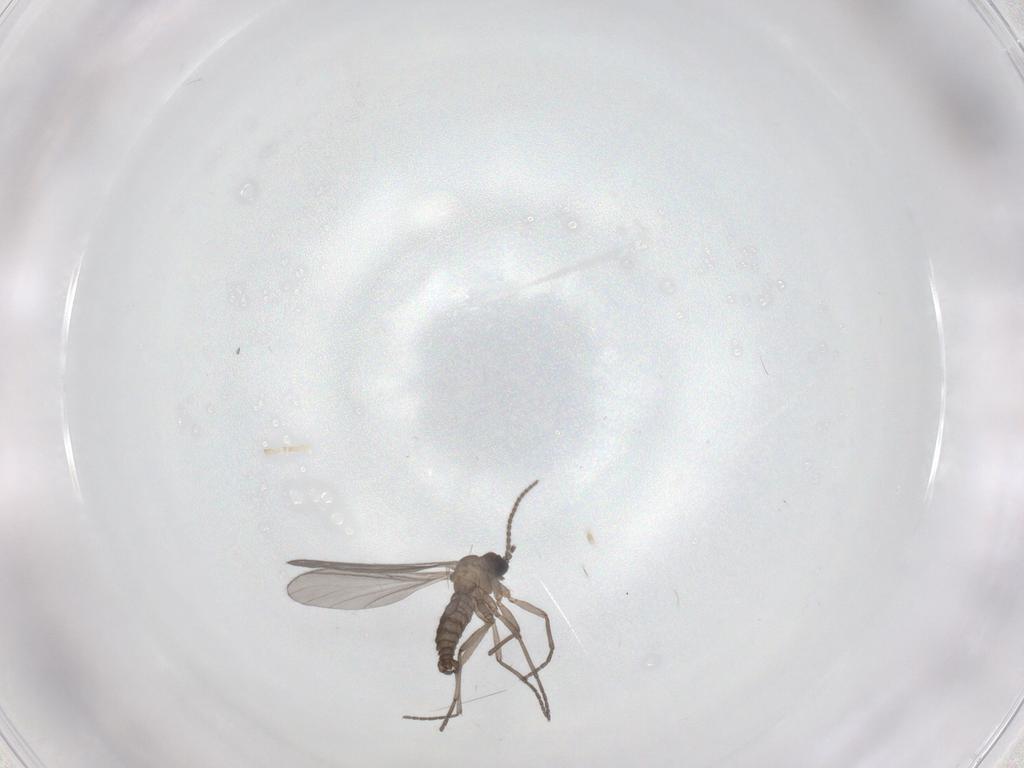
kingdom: Animalia
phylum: Arthropoda
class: Insecta
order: Diptera
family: Sciaridae
